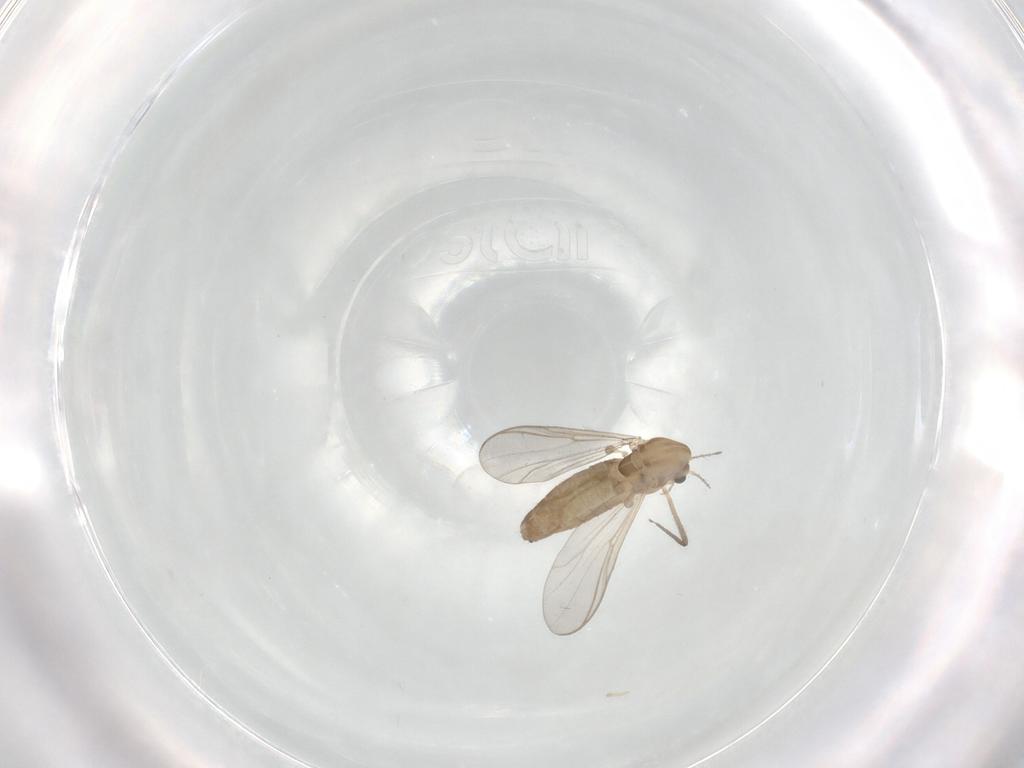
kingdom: Animalia
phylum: Arthropoda
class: Insecta
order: Diptera
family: Chironomidae
